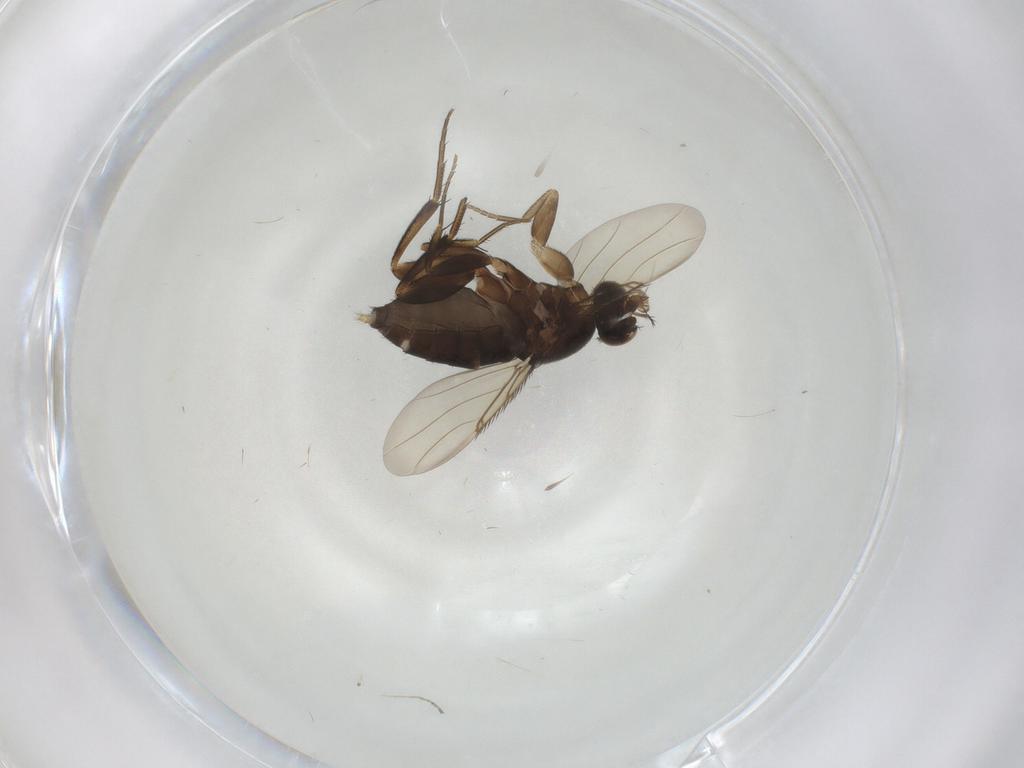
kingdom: Animalia
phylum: Arthropoda
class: Insecta
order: Diptera
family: Phoridae
